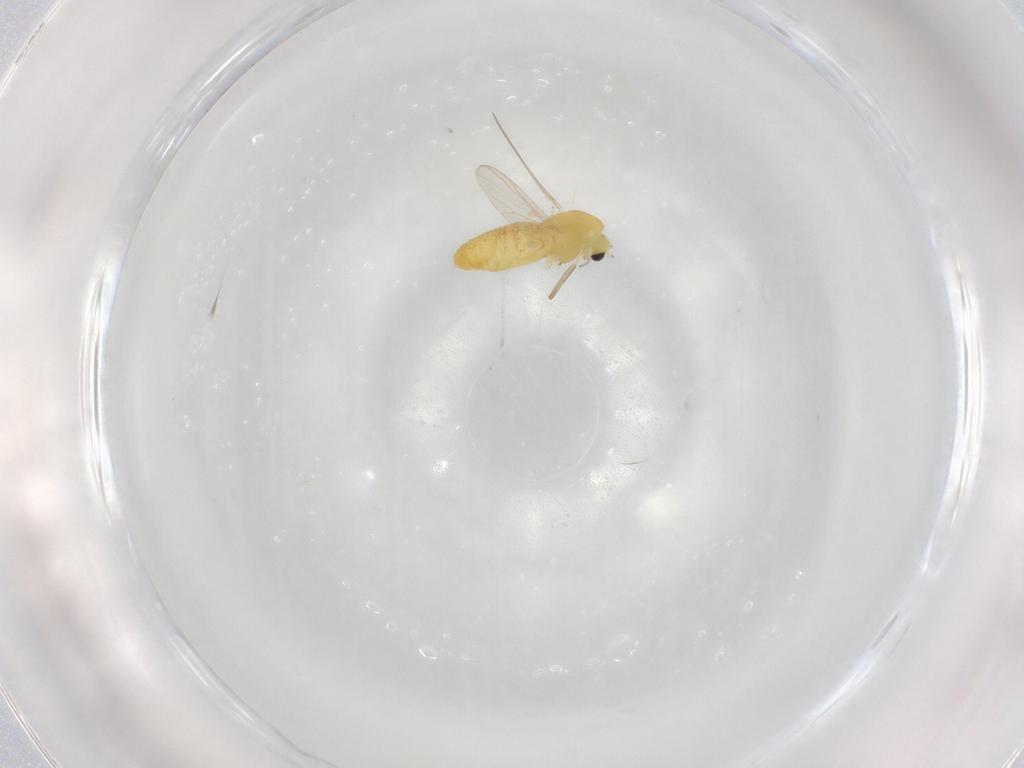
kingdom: Animalia
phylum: Arthropoda
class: Insecta
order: Diptera
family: Chironomidae
